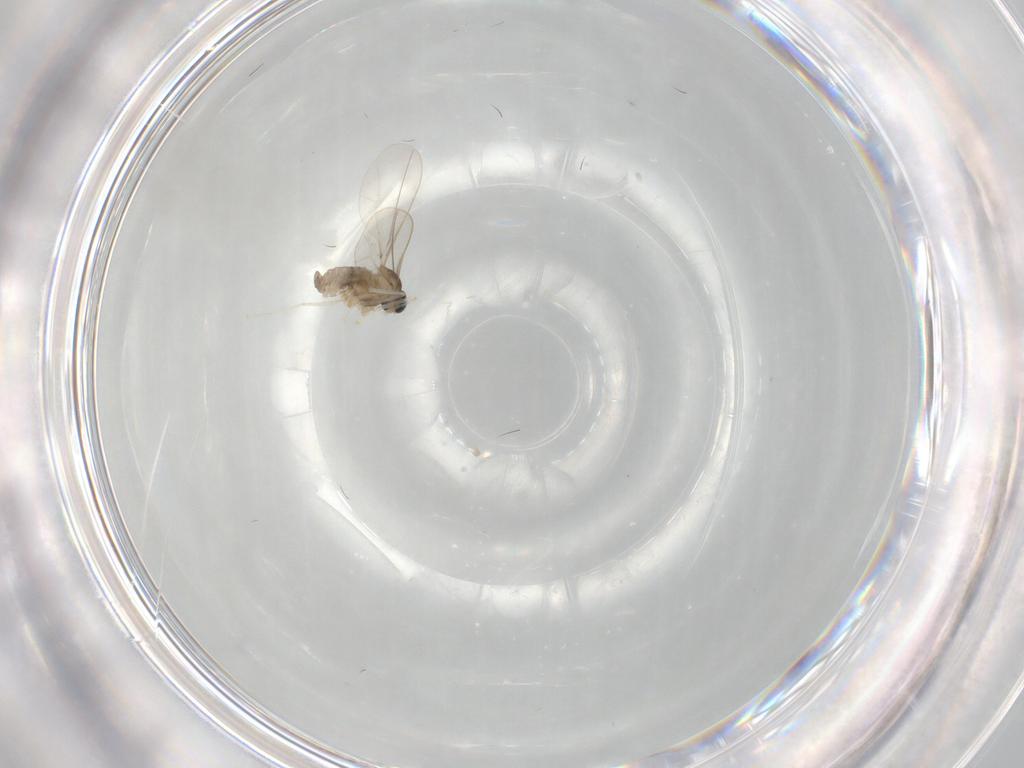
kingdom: Animalia
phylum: Arthropoda
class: Insecta
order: Diptera
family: Cecidomyiidae
